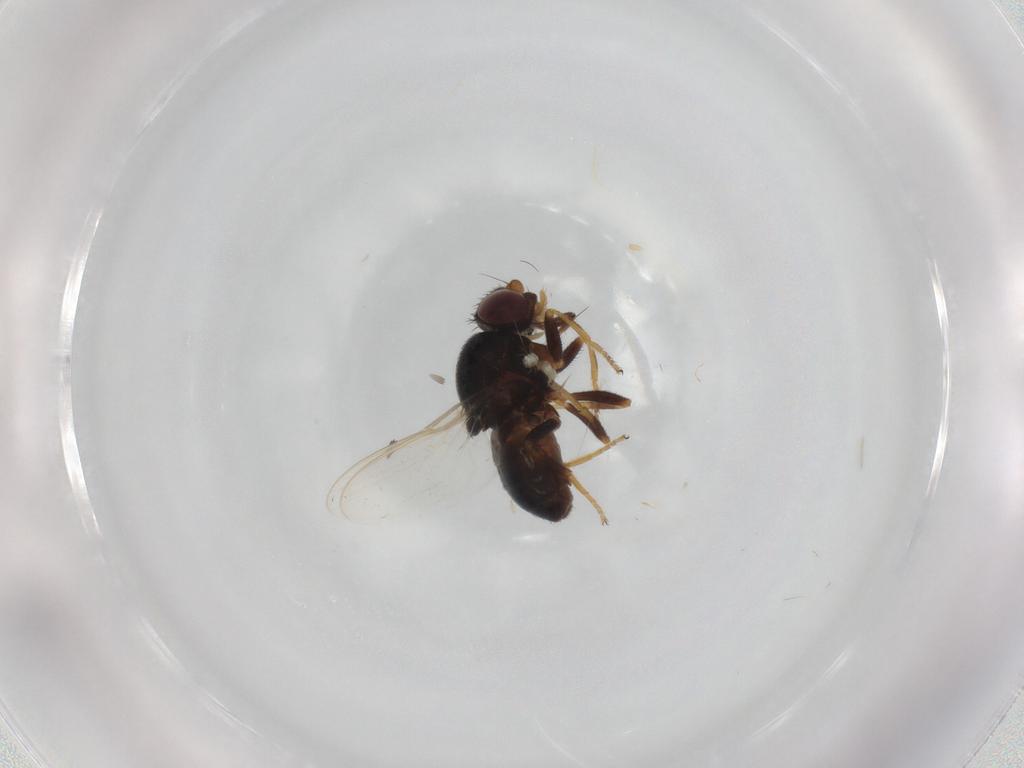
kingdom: Animalia
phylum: Arthropoda
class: Insecta
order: Diptera
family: Chloropidae
